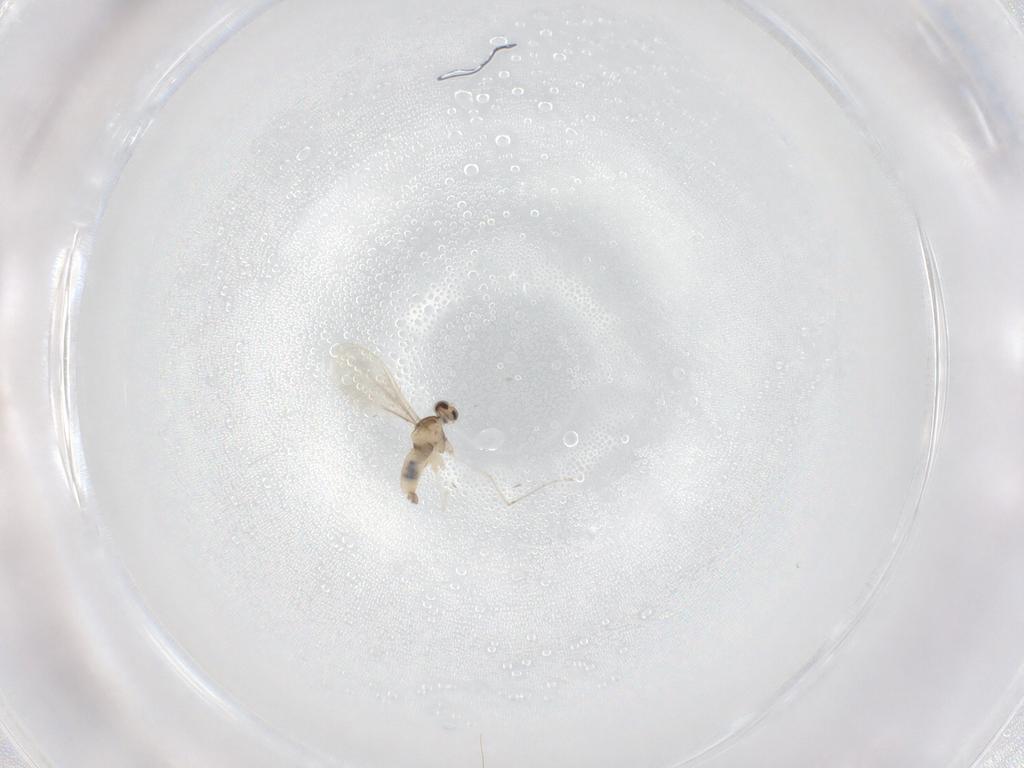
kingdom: Animalia
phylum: Arthropoda
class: Insecta
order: Diptera
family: Cecidomyiidae
